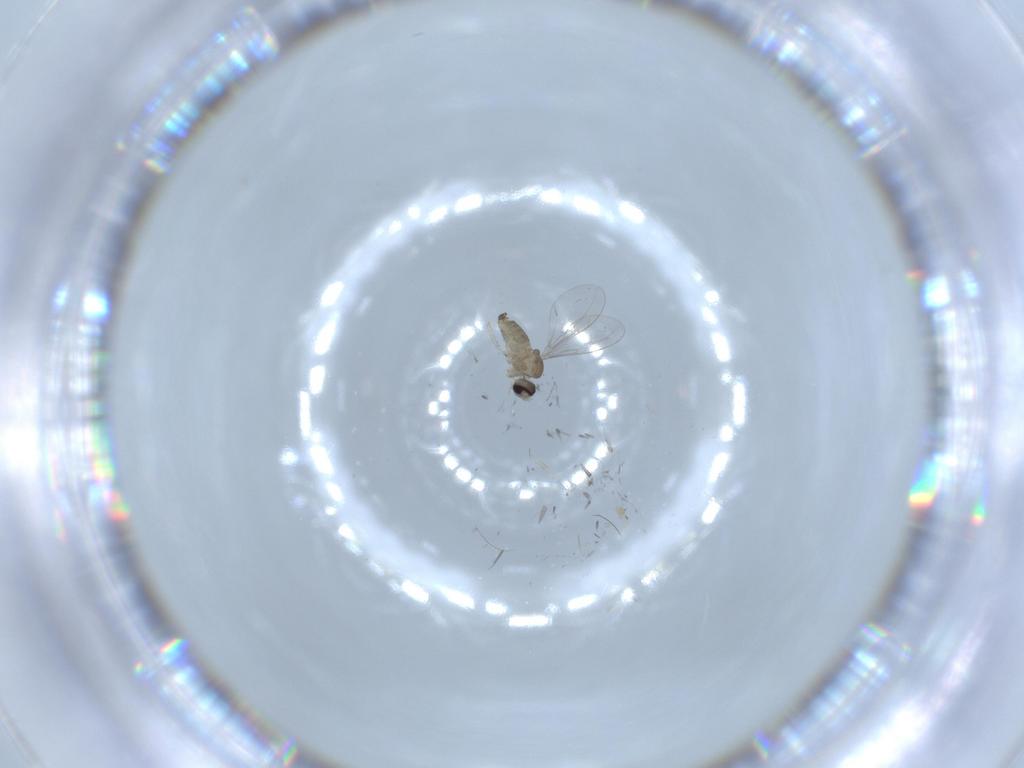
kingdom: Animalia
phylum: Arthropoda
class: Insecta
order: Diptera
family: Cecidomyiidae
